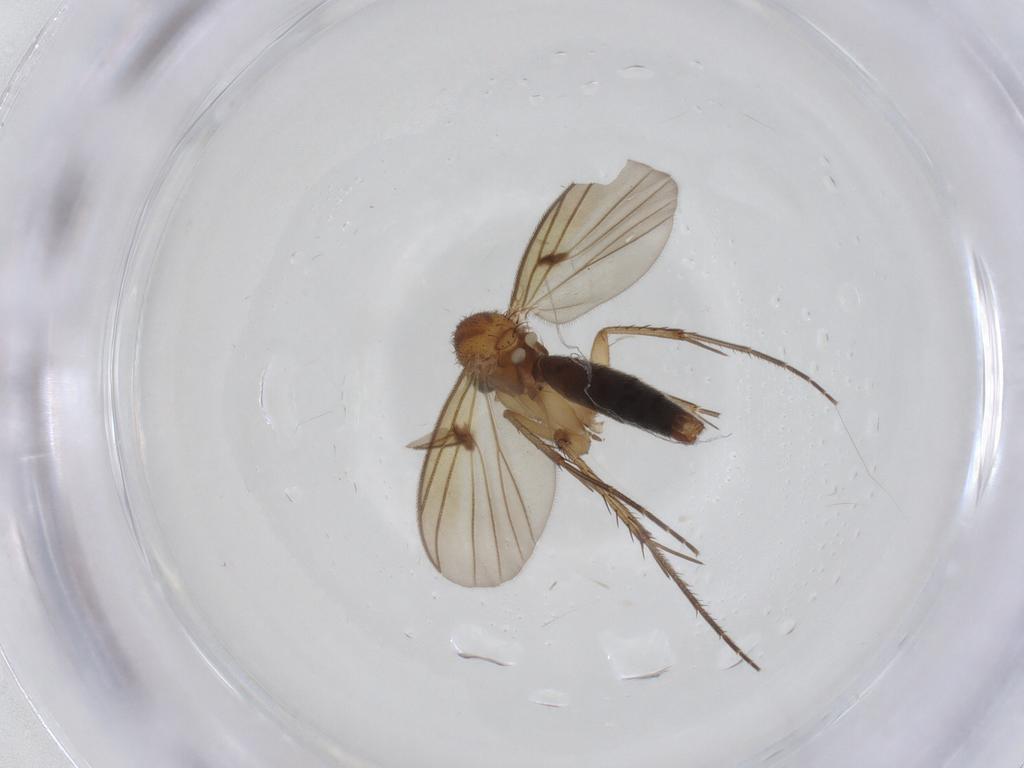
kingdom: Animalia
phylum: Arthropoda
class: Insecta
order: Diptera
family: Mycetophilidae
